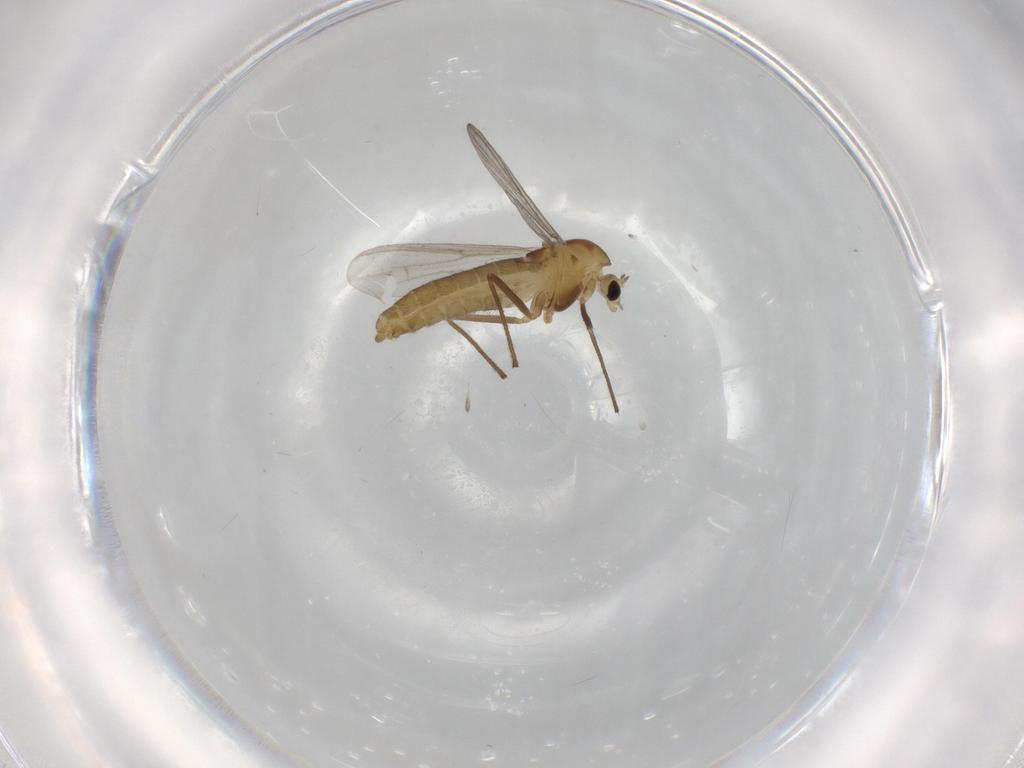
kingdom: Animalia
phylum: Arthropoda
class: Insecta
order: Diptera
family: Chironomidae
